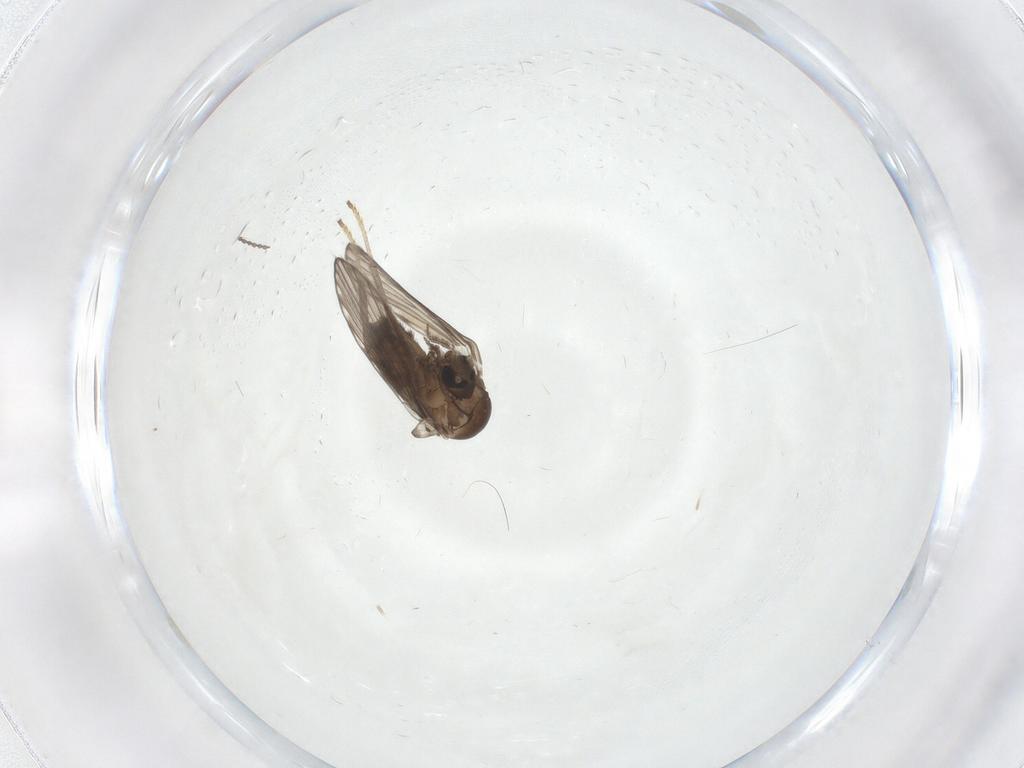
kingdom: Animalia
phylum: Arthropoda
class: Insecta
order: Diptera
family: Psychodidae
